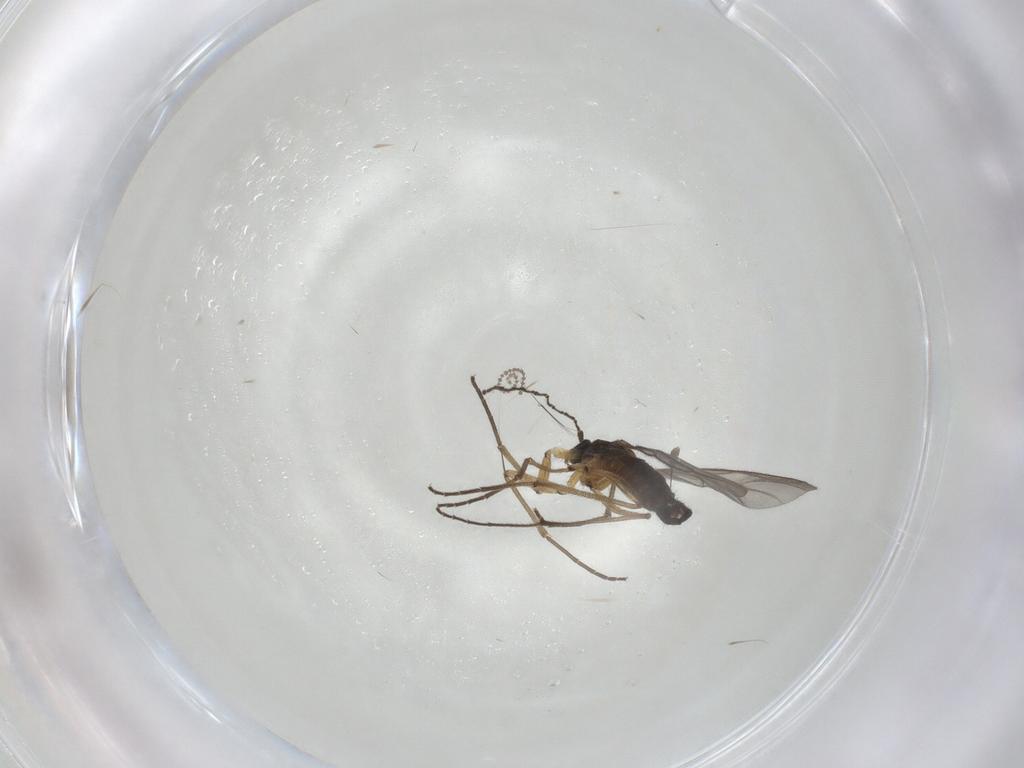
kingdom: Animalia
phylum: Arthropoda
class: Insecta
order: Diptera
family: Sciaridae
